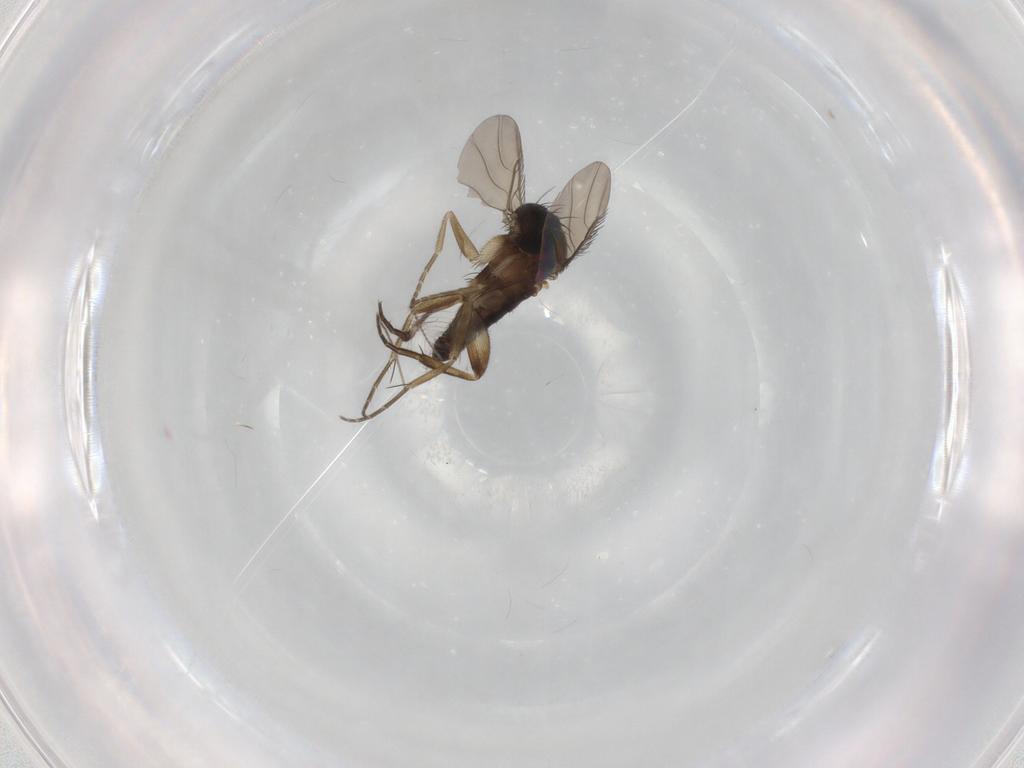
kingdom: Animalia
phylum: Arthropoda
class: Insecta
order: Diptera
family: Phoridae
